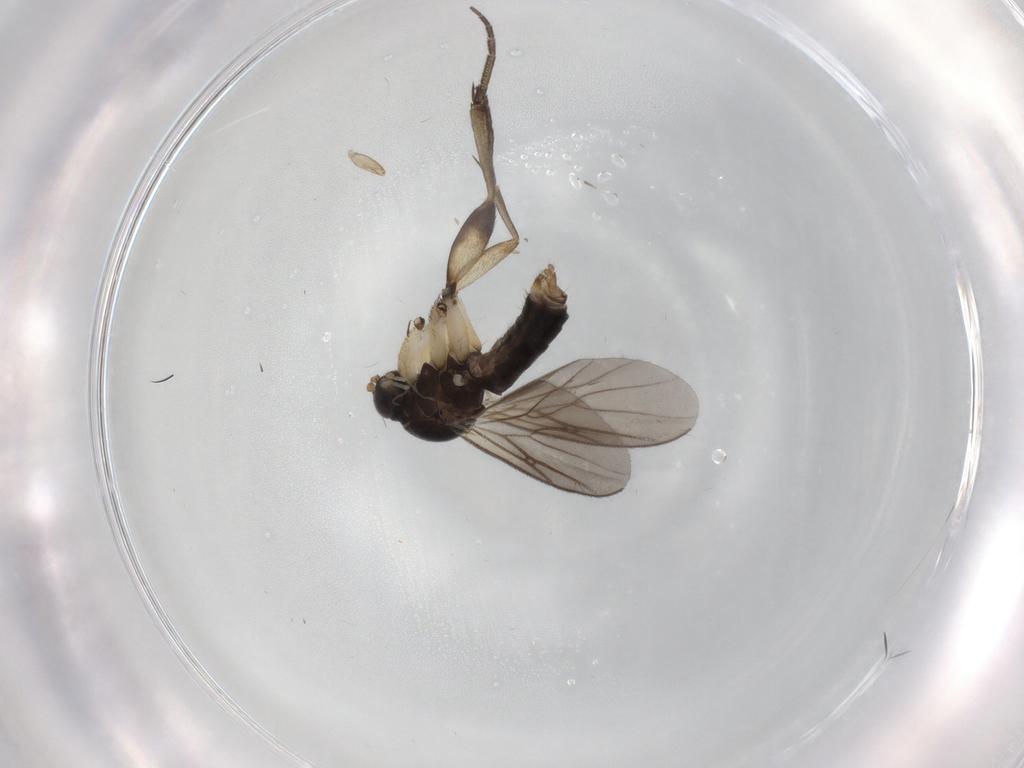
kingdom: Animalia
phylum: Arthropoda
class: Insecta
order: Diptera
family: Mycetophilidae
